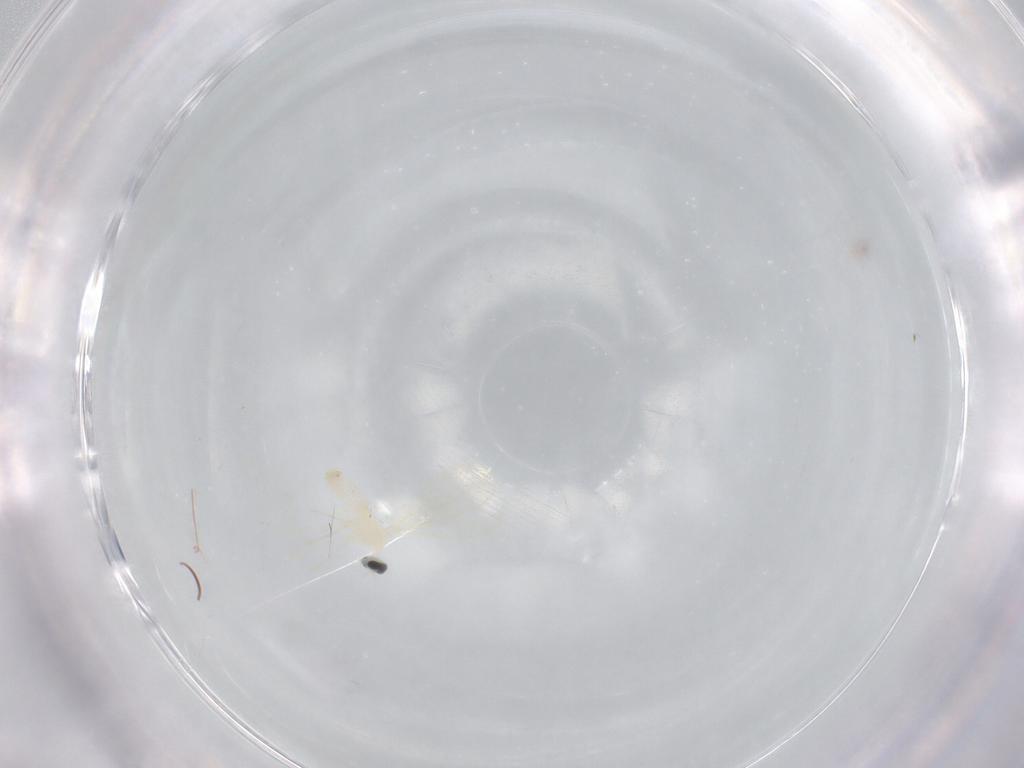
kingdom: Animalia
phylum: Arthropoda
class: Insecta
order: Diptera
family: Cecidomyiidae
